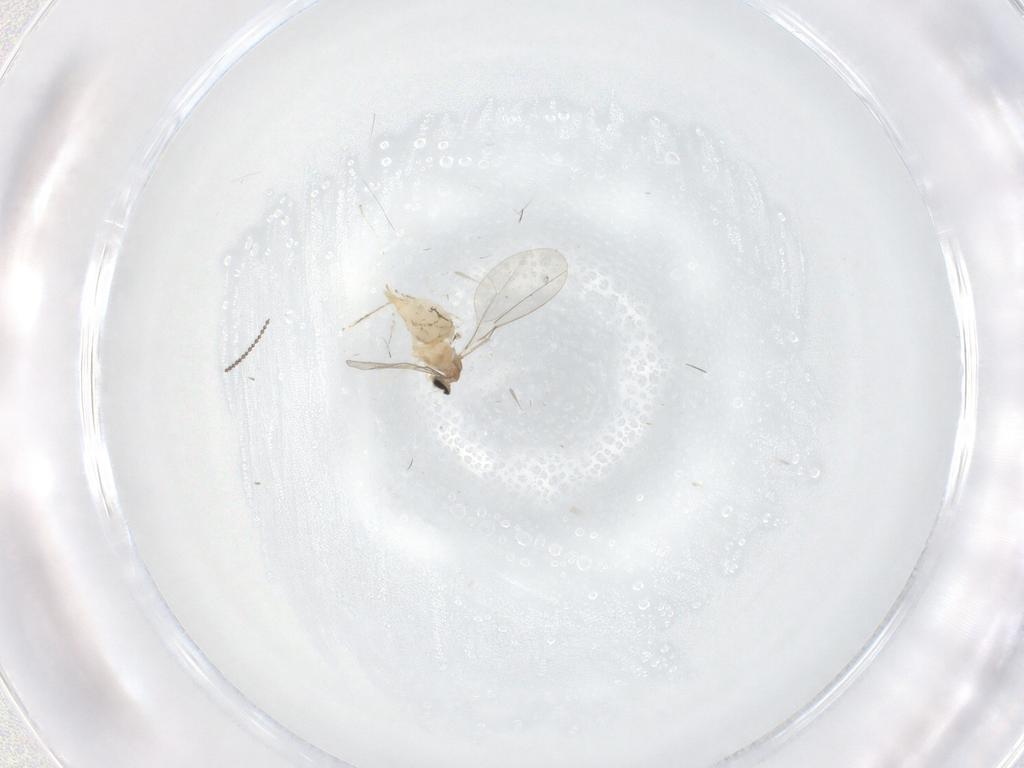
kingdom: Animalia
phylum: Arthropoda
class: Insecta
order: Diptera
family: Cecidomyiidae
